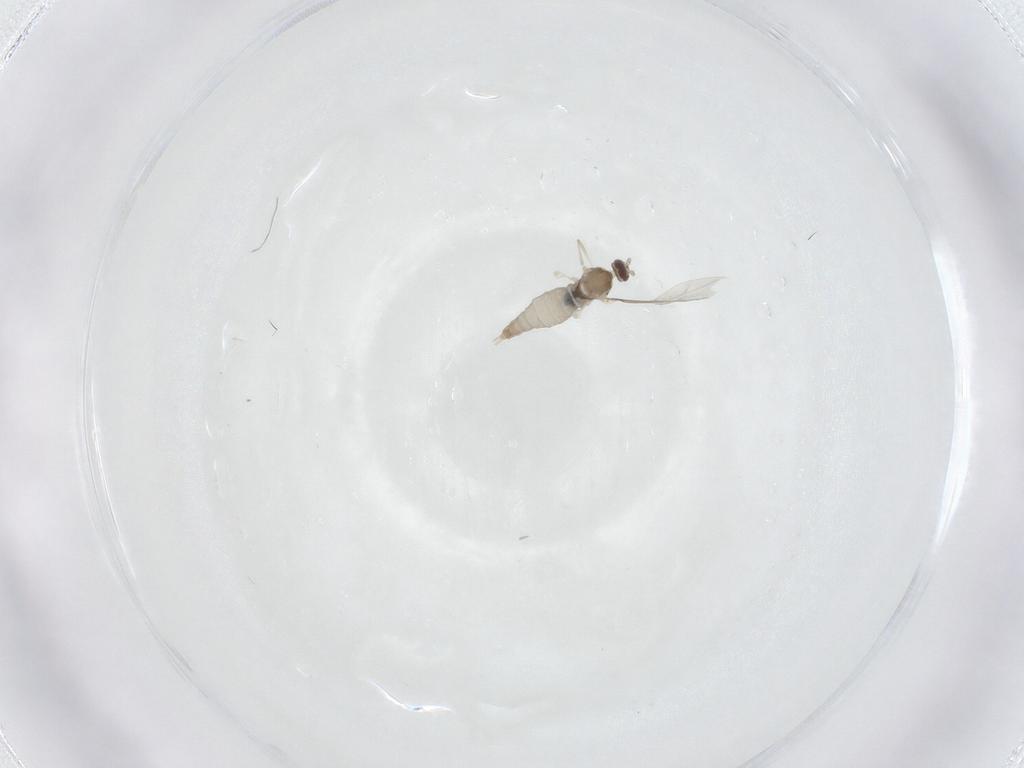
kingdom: Animalia
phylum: Arthropoda
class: Insecta
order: Diptera
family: Cecidomyiidae
